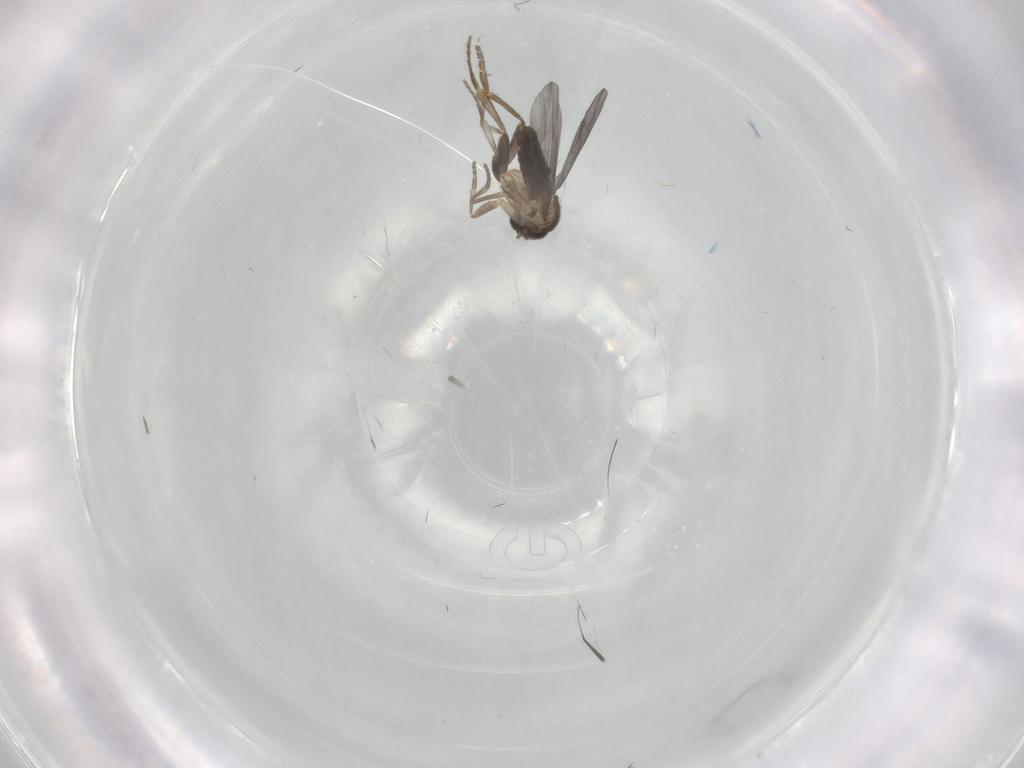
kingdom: Animalia
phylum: Arthropoda
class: Insecta
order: Diptera
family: Phoridae
